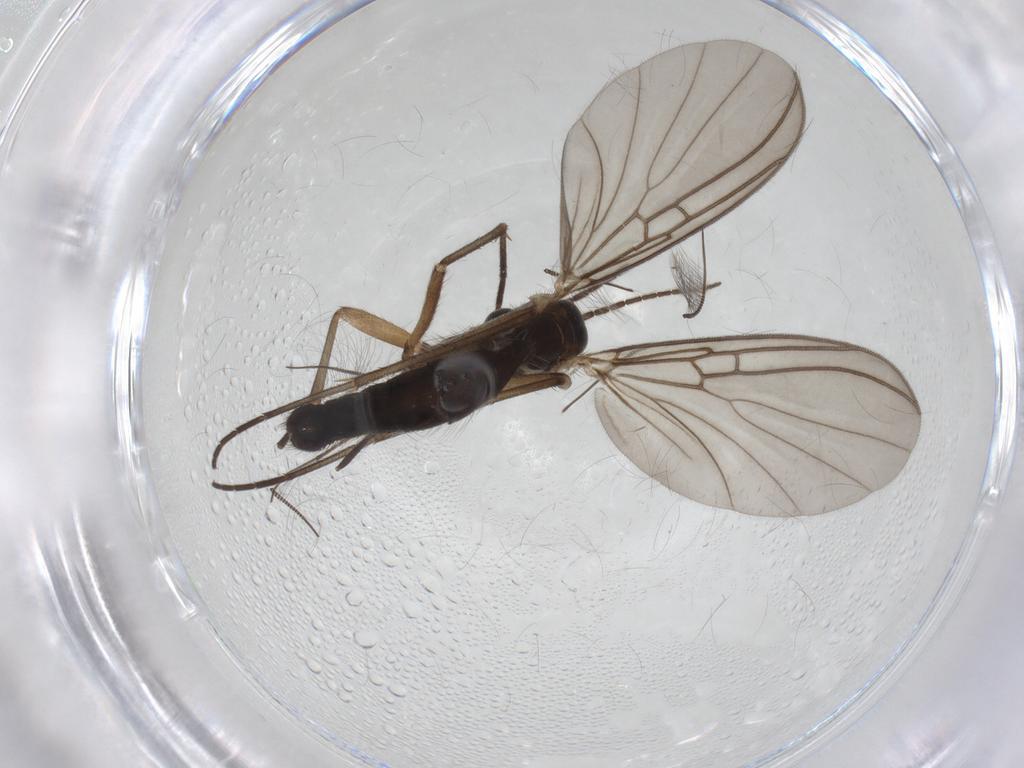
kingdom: Animalia
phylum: Arthropoda
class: Insecta
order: Diptera
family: Mycetophilidae
